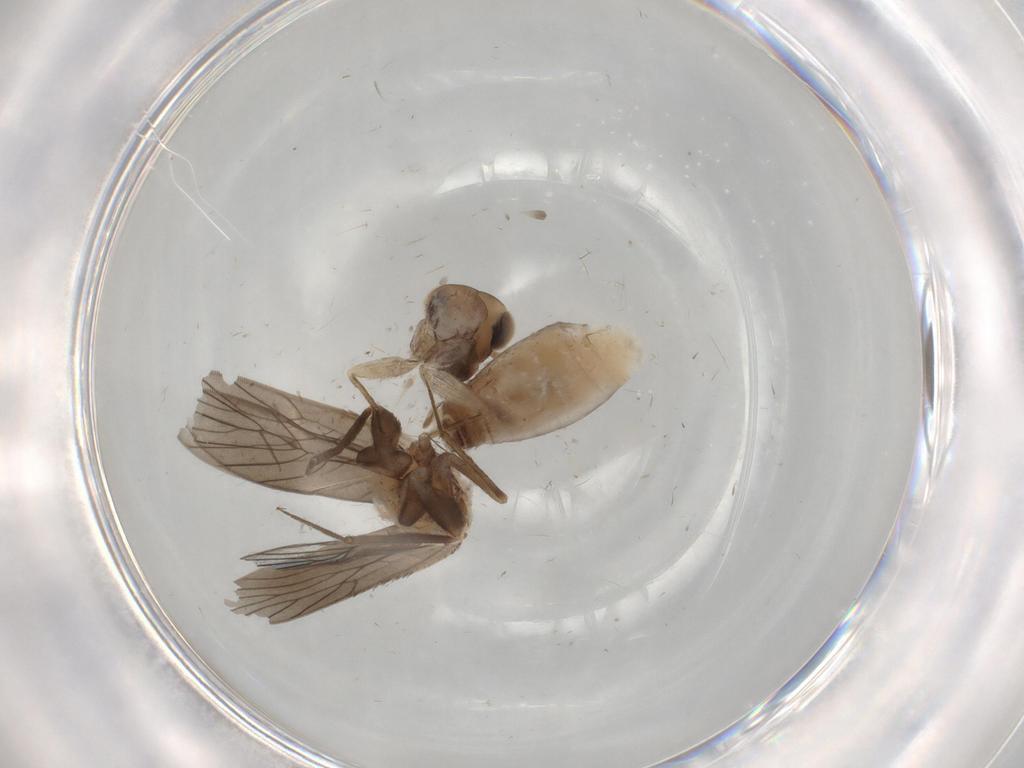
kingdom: Animalia
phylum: Arthropoda
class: Insecta
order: Psocodea
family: Lepidopsocidae
